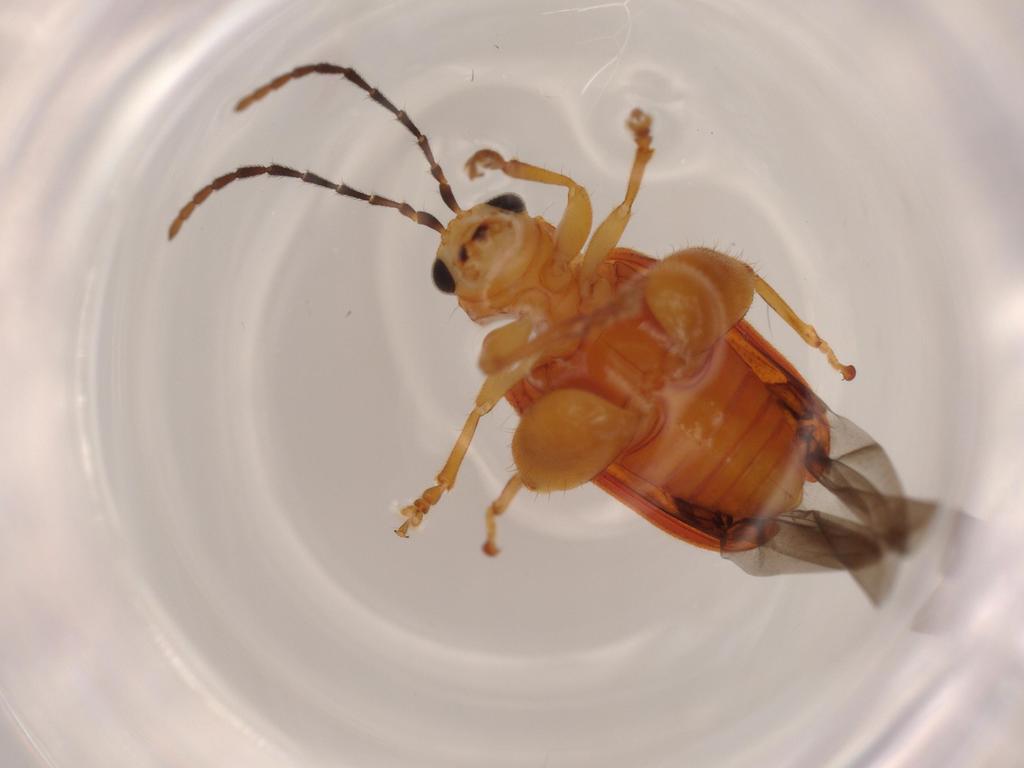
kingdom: Animalia
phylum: Arthropoda
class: Insecta
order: Coleoptera
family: Chrysomelidae
